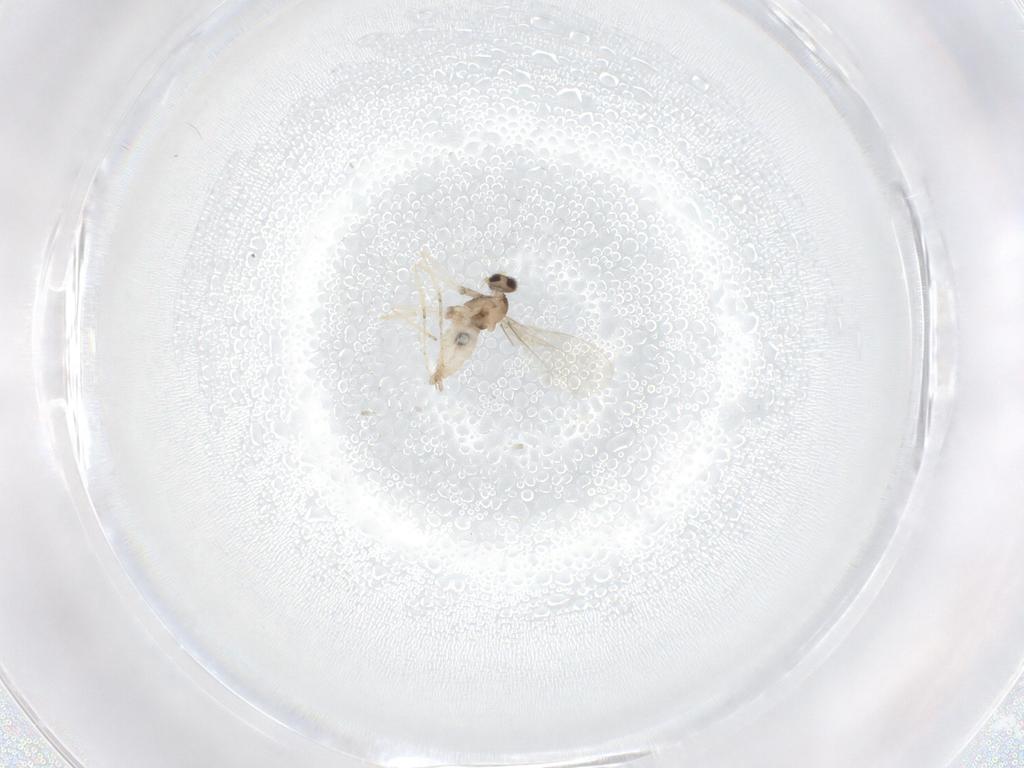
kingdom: Animalia
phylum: Arthropoda
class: Insecta
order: Diptera
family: Cecidomyiidae
